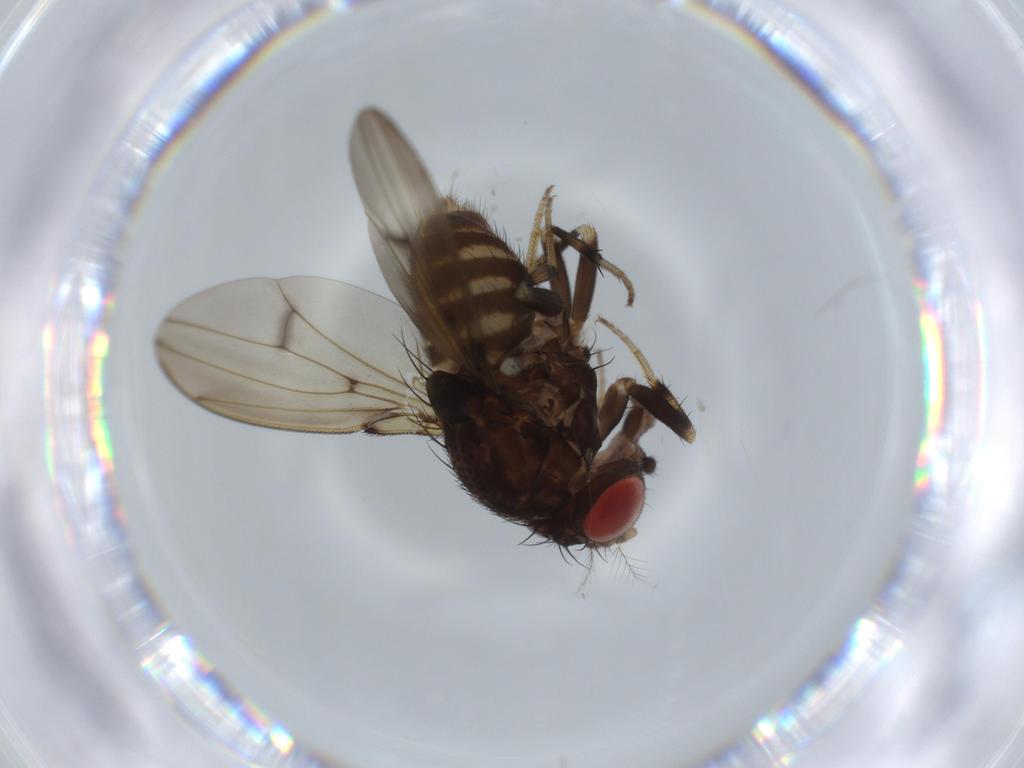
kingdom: Animalia
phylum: Arthropoda
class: Insecta
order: Diptera
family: Drosophilidae
